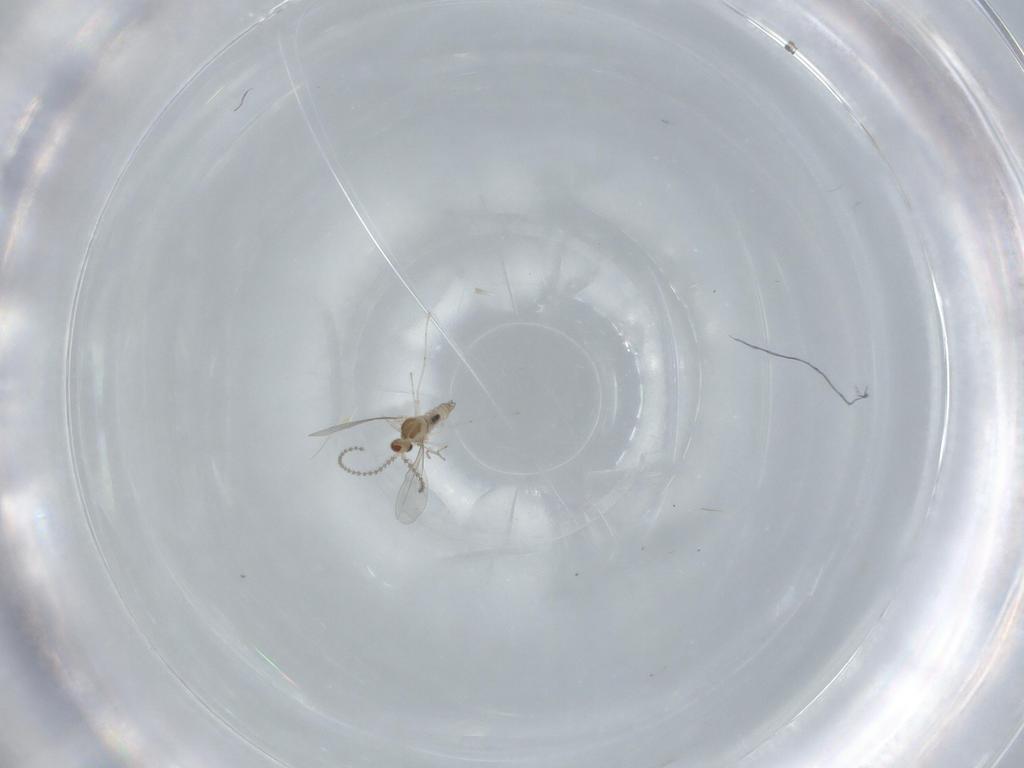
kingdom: Animalia
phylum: Arthropoda
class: Insecta
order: Diptera
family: Cecidomyiidae
